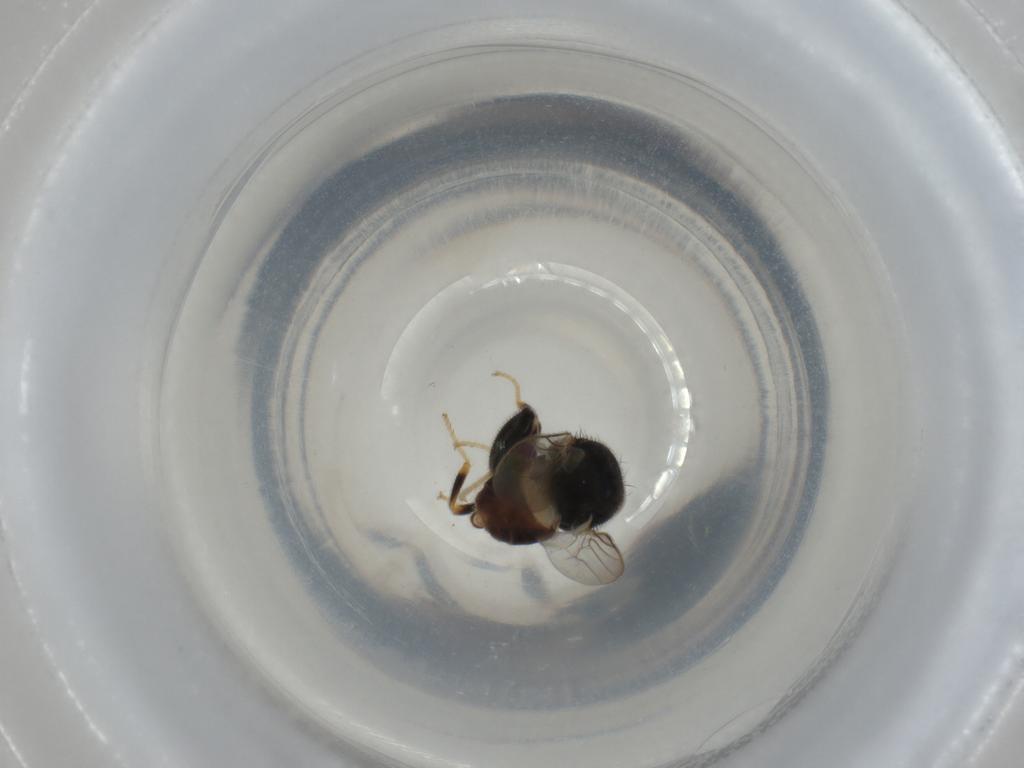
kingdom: Animalia
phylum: Arthropoda
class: Insecta
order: Diptera
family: Chloropidae
